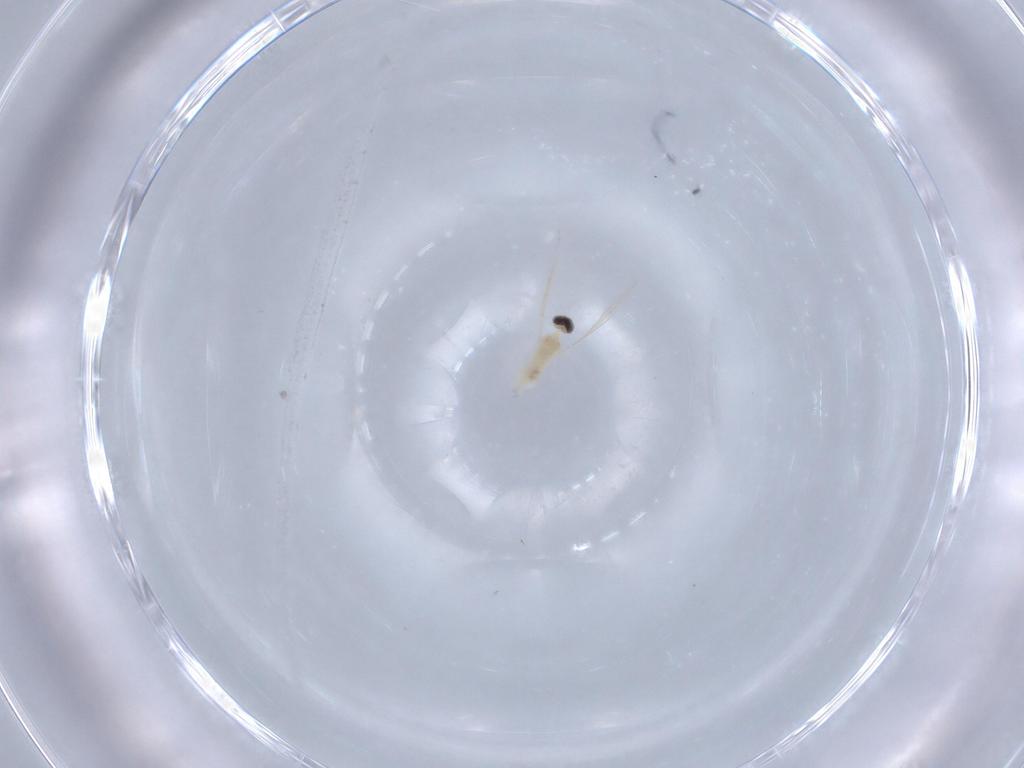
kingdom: Animalia
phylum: Arthropoda
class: Insecta
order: Diptera
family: Cecidomyiidae
